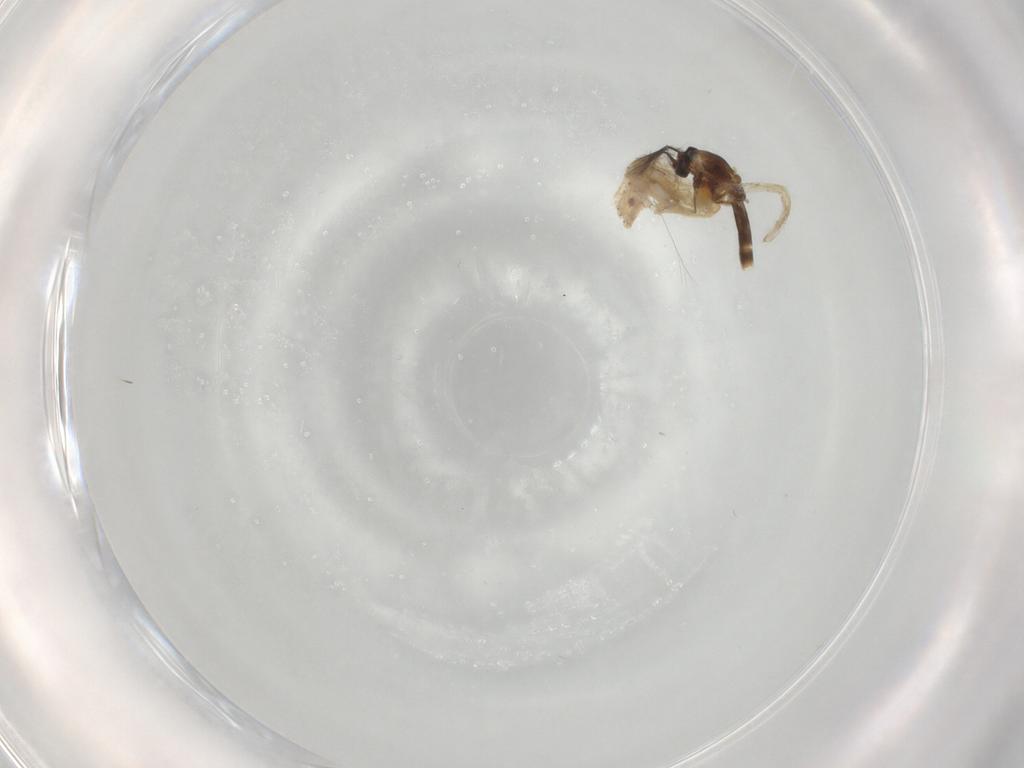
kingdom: Animalia
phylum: Arthropoda
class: Insecta
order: Diptera
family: Chironomidae
